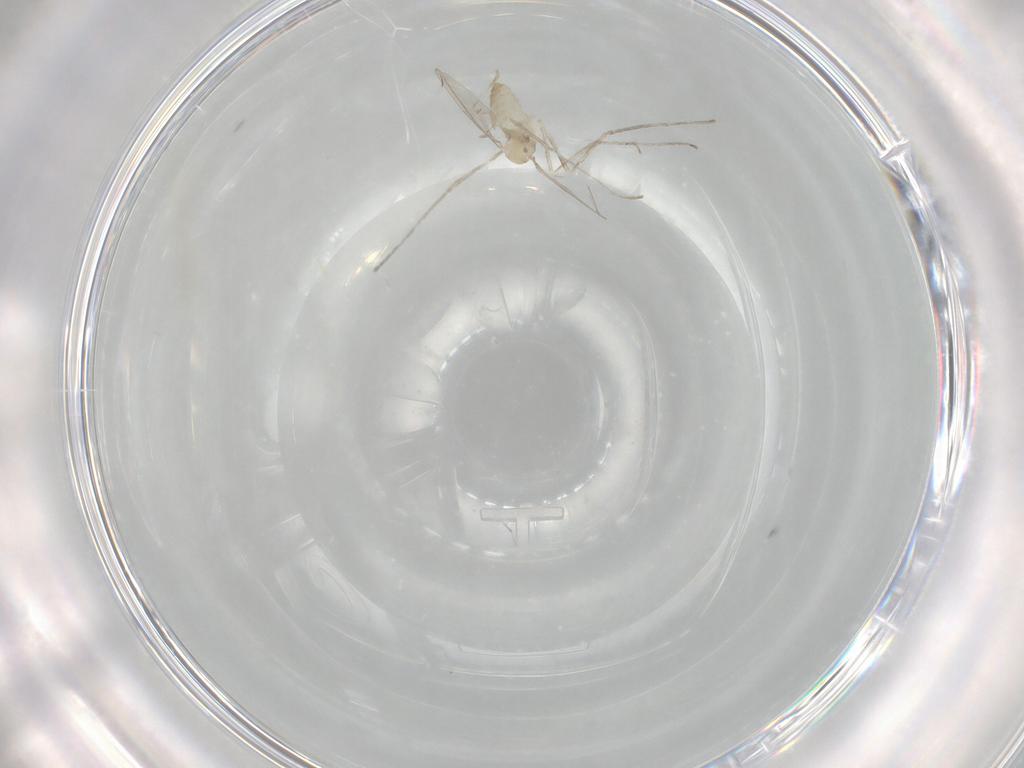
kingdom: Animalia
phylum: Arthropoda
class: Insecta
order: Diptera
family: Cecidomyiidae
